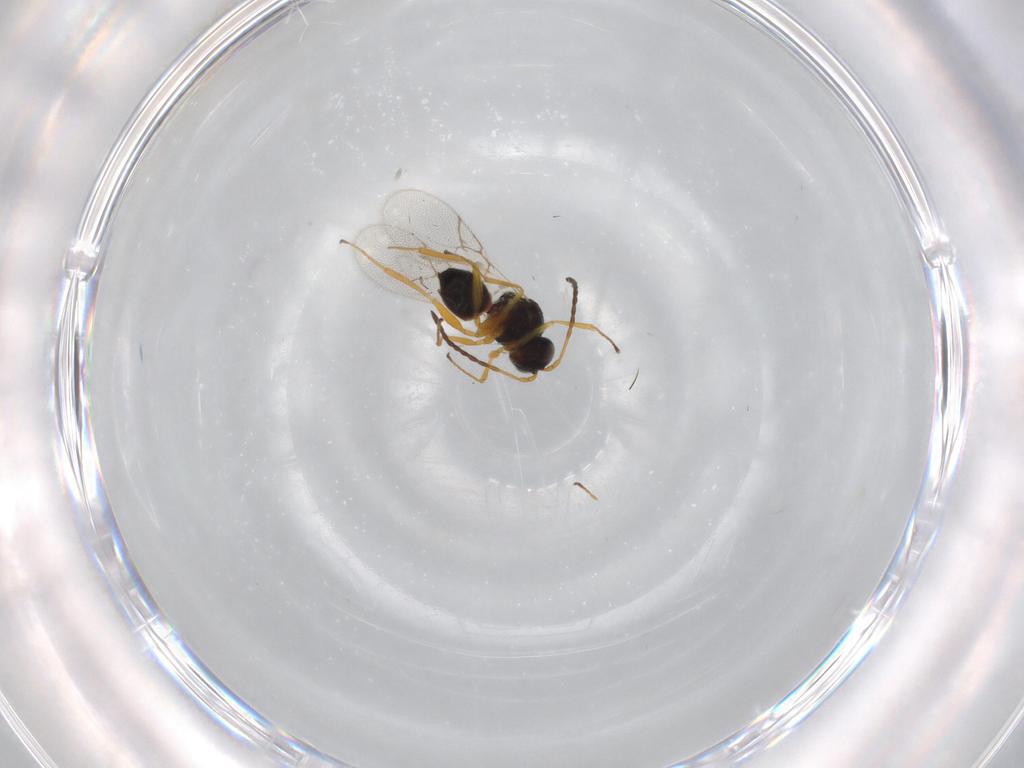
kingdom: Animalia
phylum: Arthropoda
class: Insecta
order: Hymenoptera
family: Figitidae
